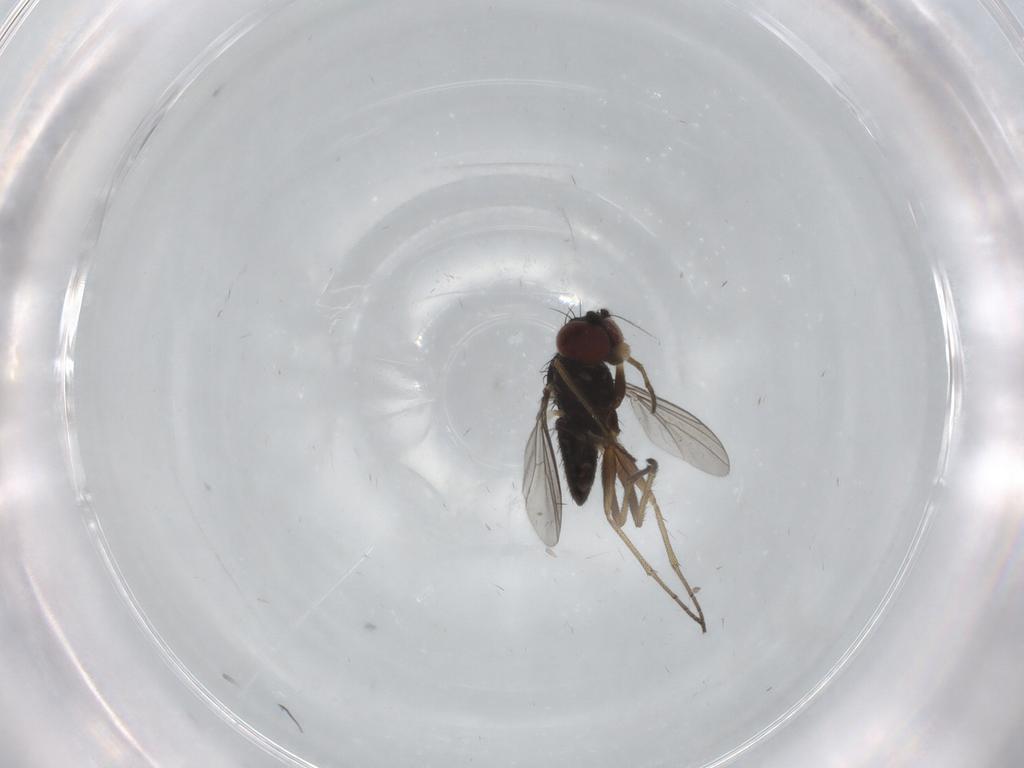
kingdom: Animalia
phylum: Arthropoda
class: Insecta
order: Diptera
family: Dolichopodidae
